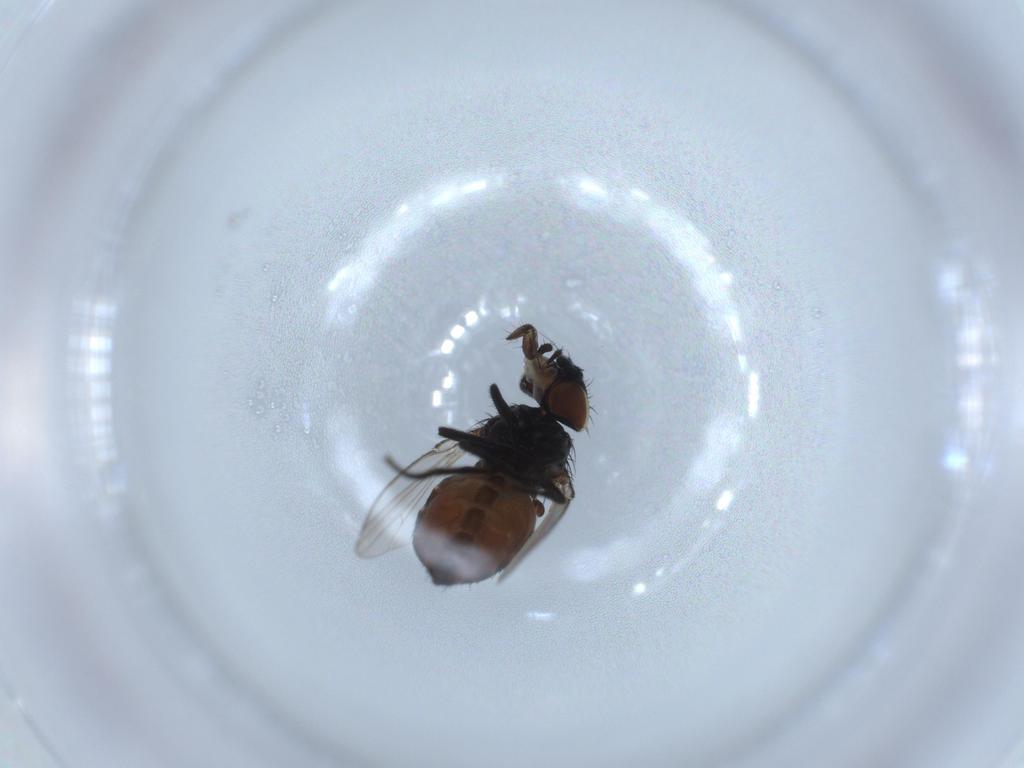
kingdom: Animalia
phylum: Arthropoda
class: Insecta
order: Diptera
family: Milichiidae
